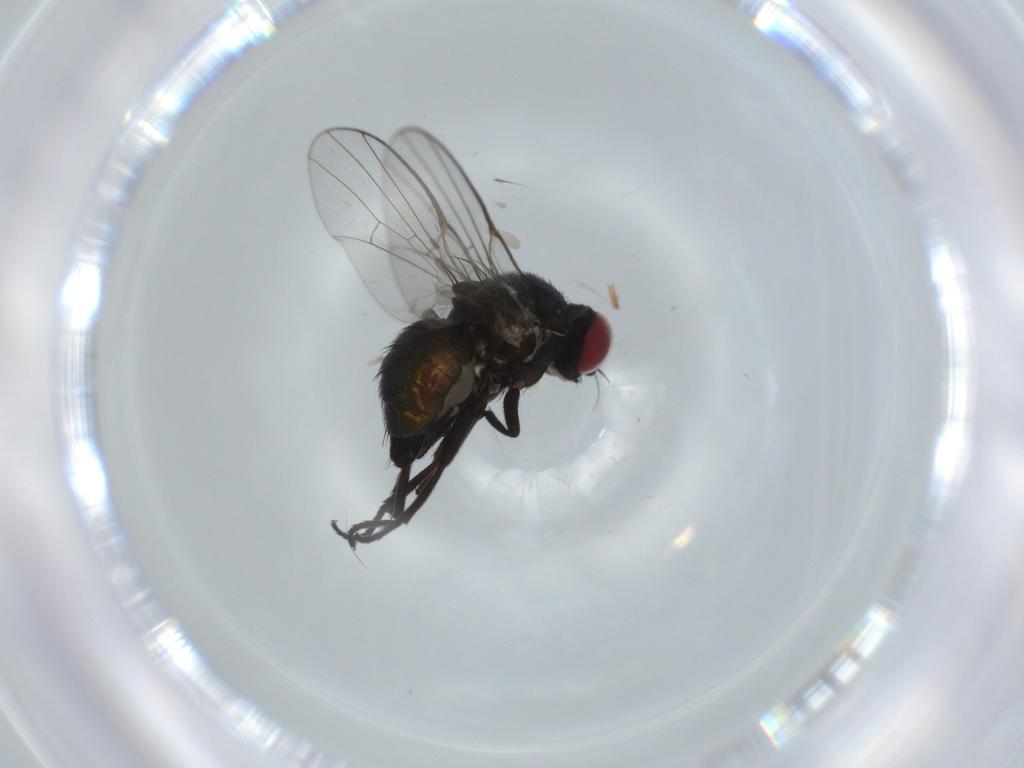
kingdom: Animalia
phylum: Arthropoda
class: Insecta
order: Diptera
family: Agromyzidae
